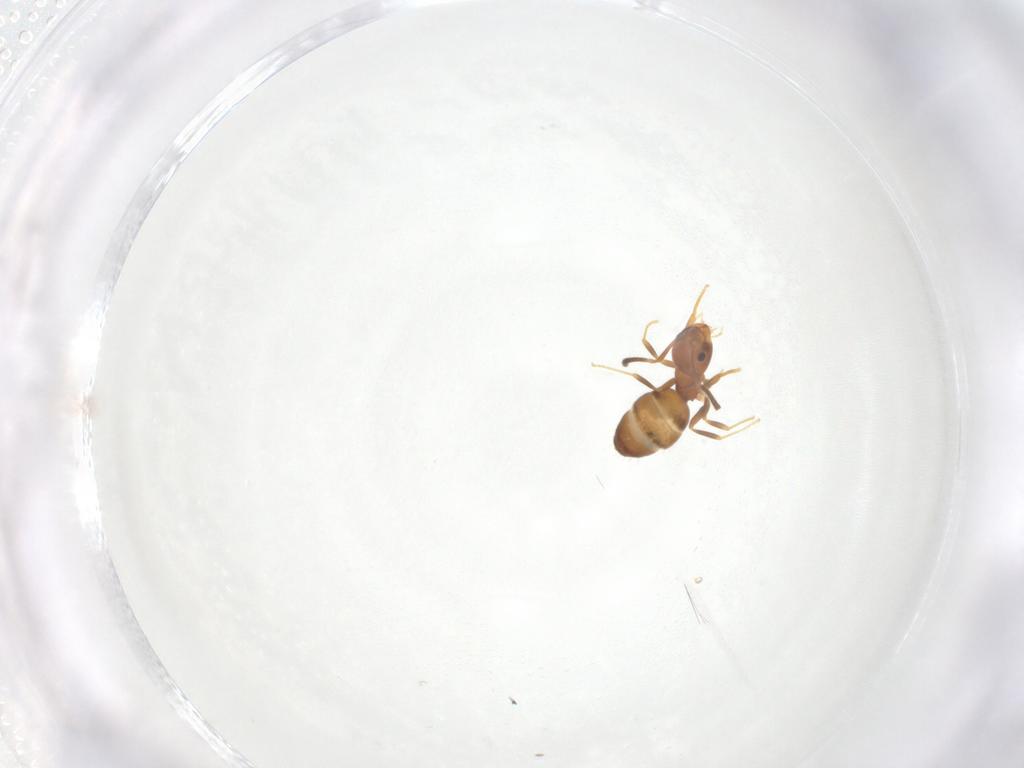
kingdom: Animalia
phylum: Arthropoda
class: Insecta
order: Hymenoptera
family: Formicidae
